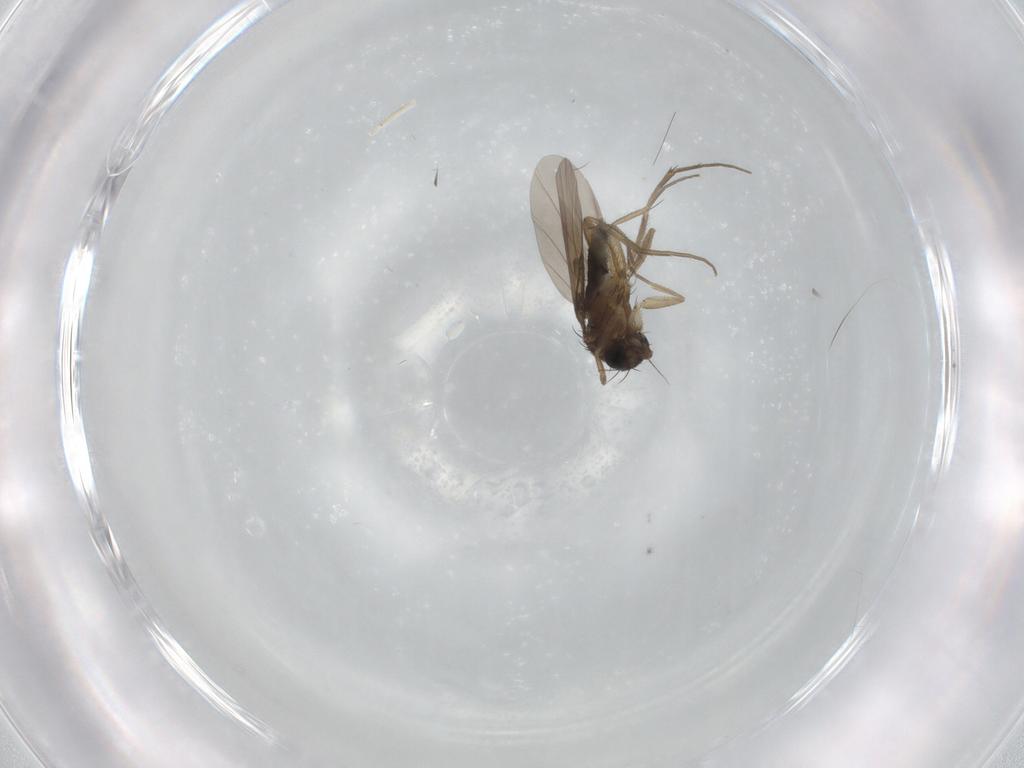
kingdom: Animalia
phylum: Arthropoda
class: Insecta
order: Diptera
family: Phoridae
